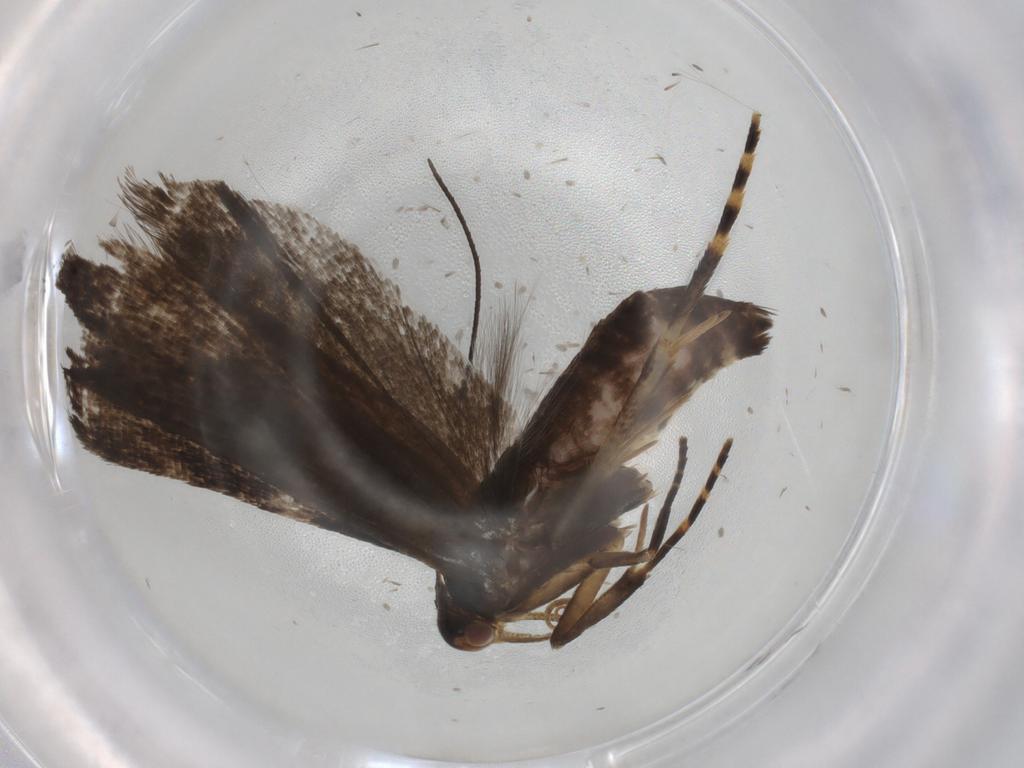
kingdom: Animalia
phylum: Arthropoda
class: Insecta
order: Lepidoptera
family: Gelechiidae
